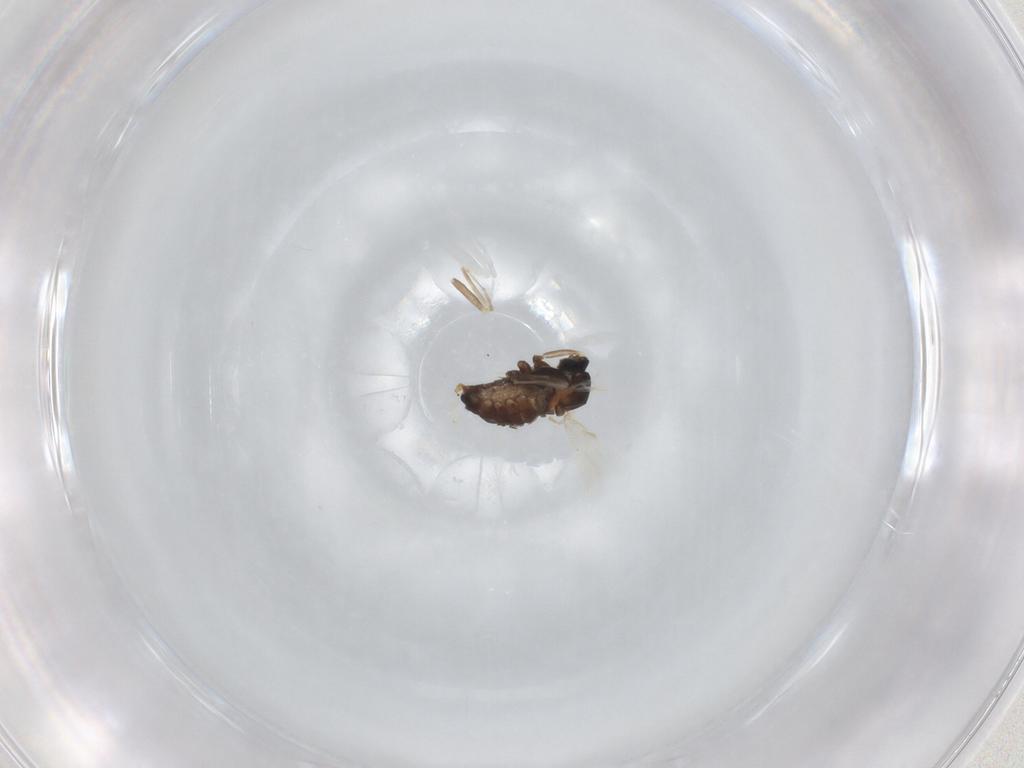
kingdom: Animalia
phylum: Arthropoda
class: Insecta
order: Diptera
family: Cecidomyiidae
